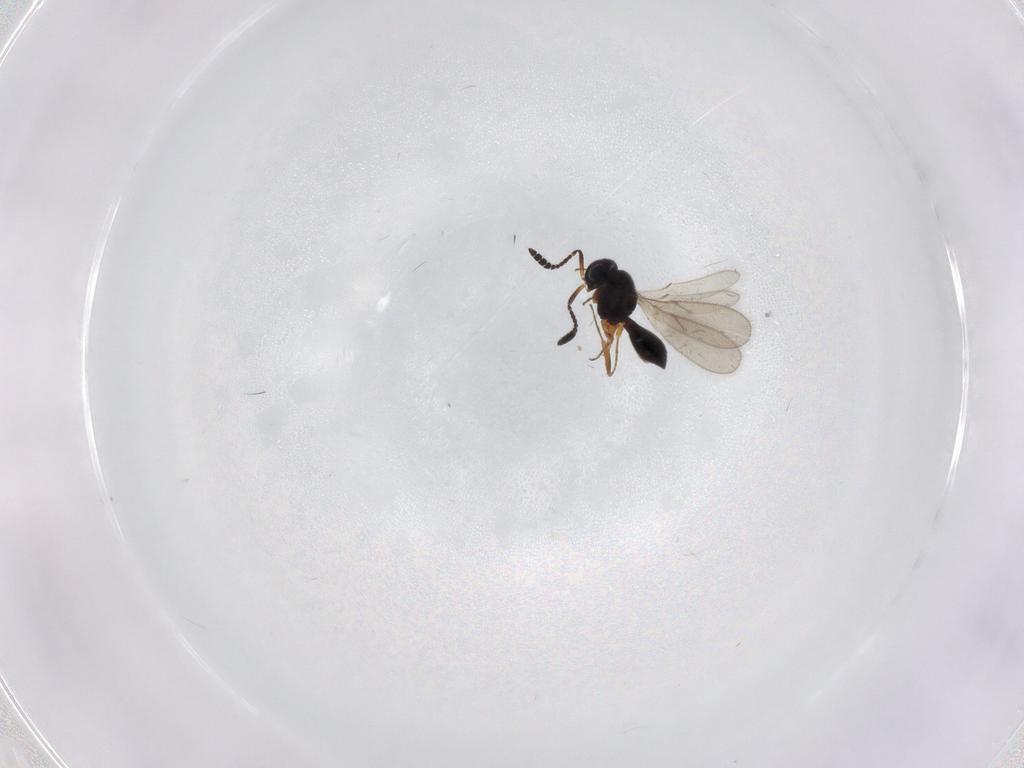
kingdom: Animalia
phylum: Arthropoda
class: Insecta
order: Hymenoptera
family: Scelionidae
